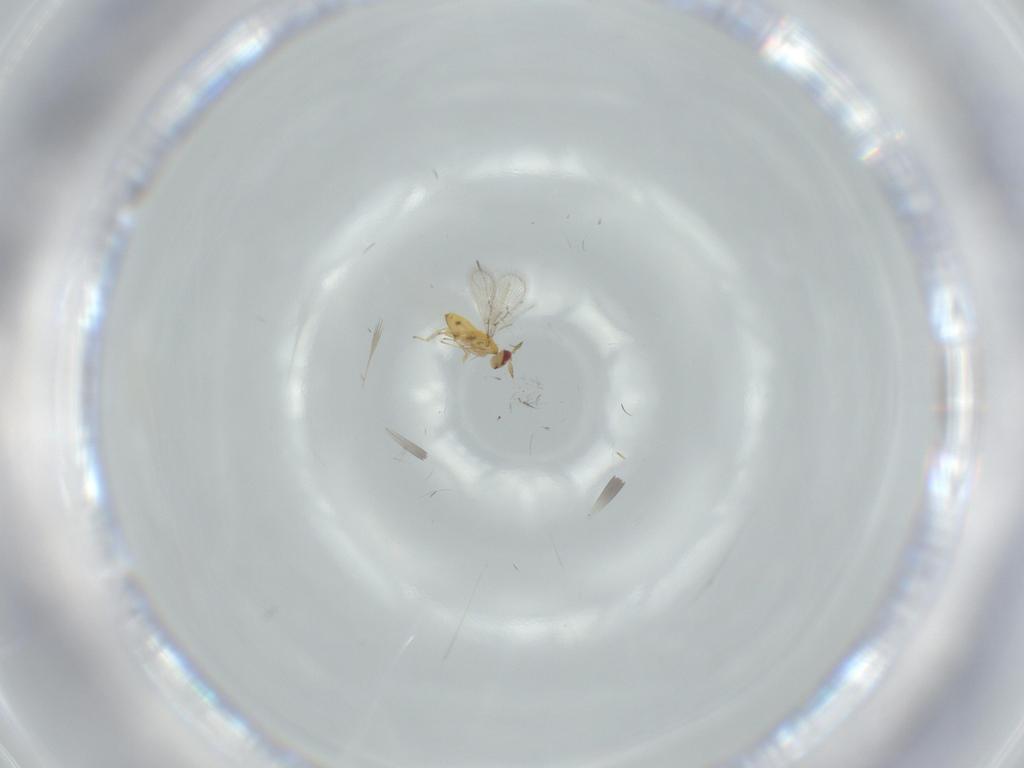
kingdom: Animalia
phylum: Arthropoda
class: Insecta
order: Hymenoptera
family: Trichogrammatidae
